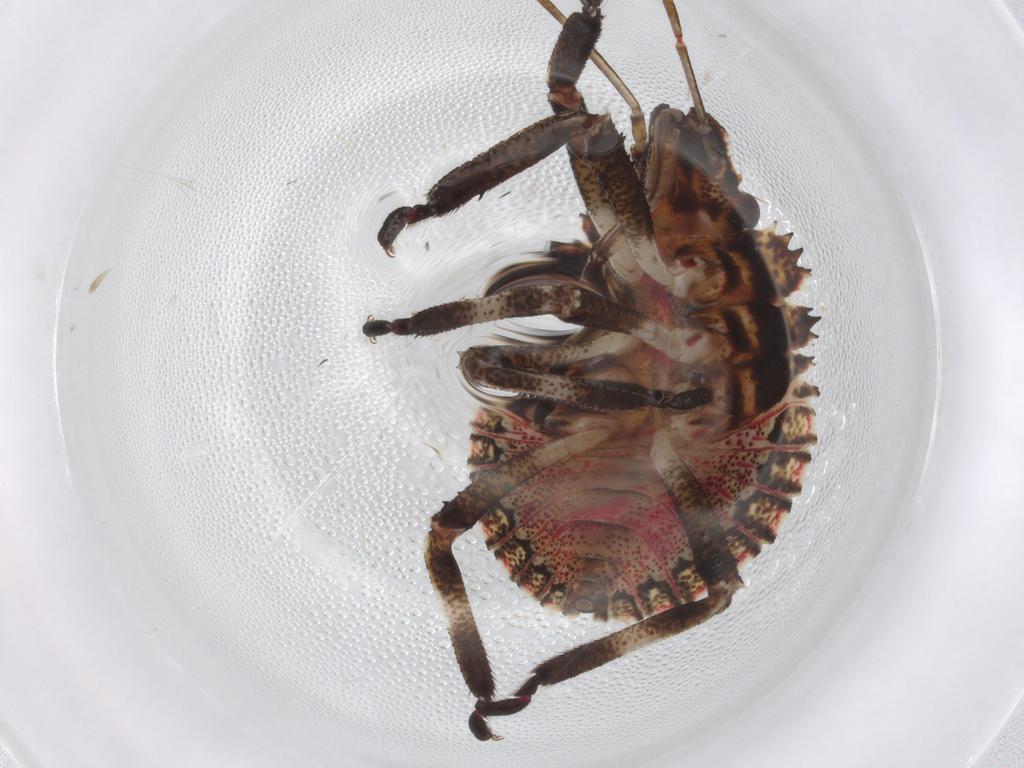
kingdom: Animalia
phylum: Arthropoda
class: Insecta
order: Hemiptera
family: Pentatomidae
